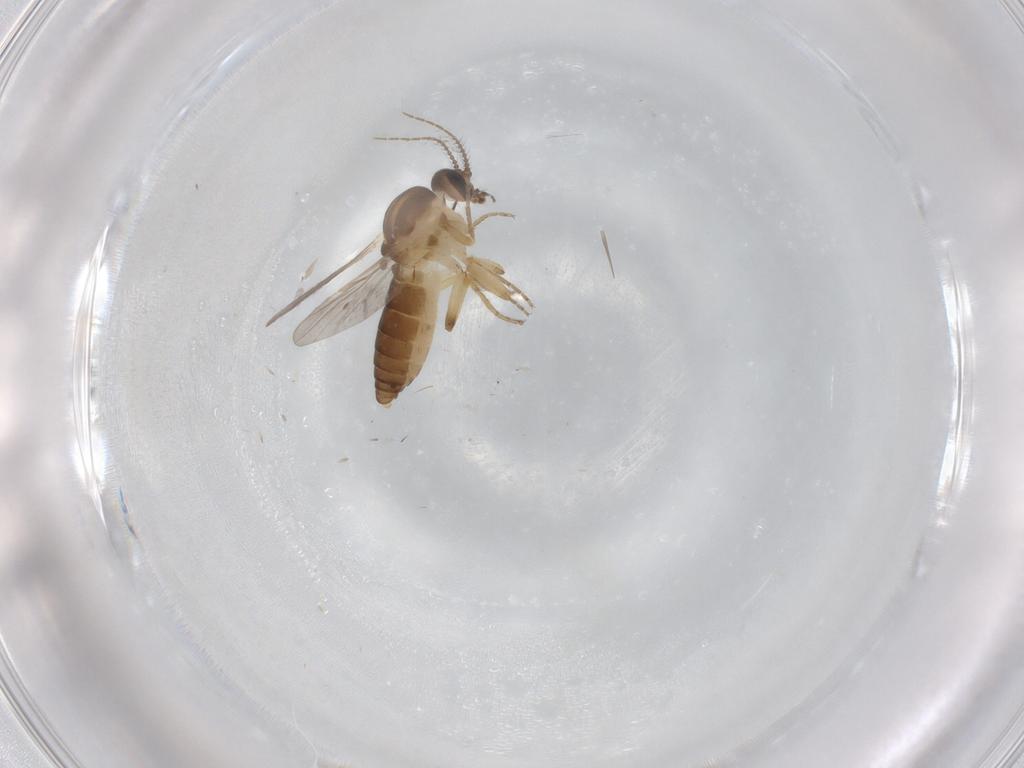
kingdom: Animalia
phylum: Arthropoda
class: Insecta
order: Diptera
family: Ceratopogonidae
